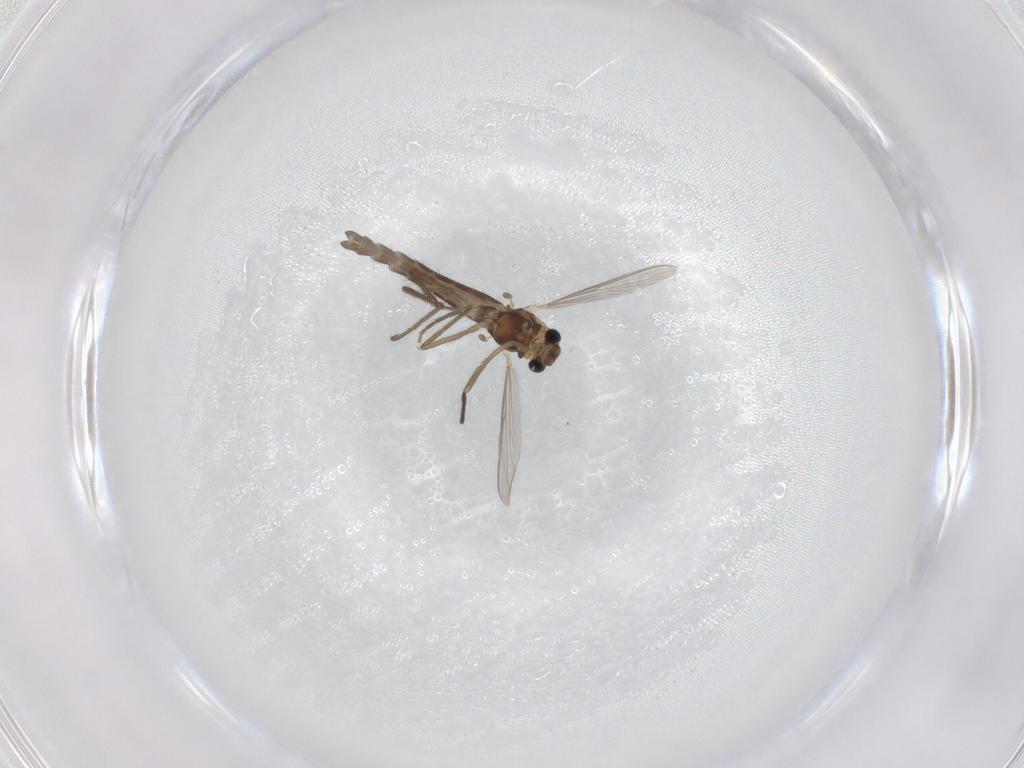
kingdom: Animalia
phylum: Arthropoda
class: Insecta
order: Diptera
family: Chironomidae
